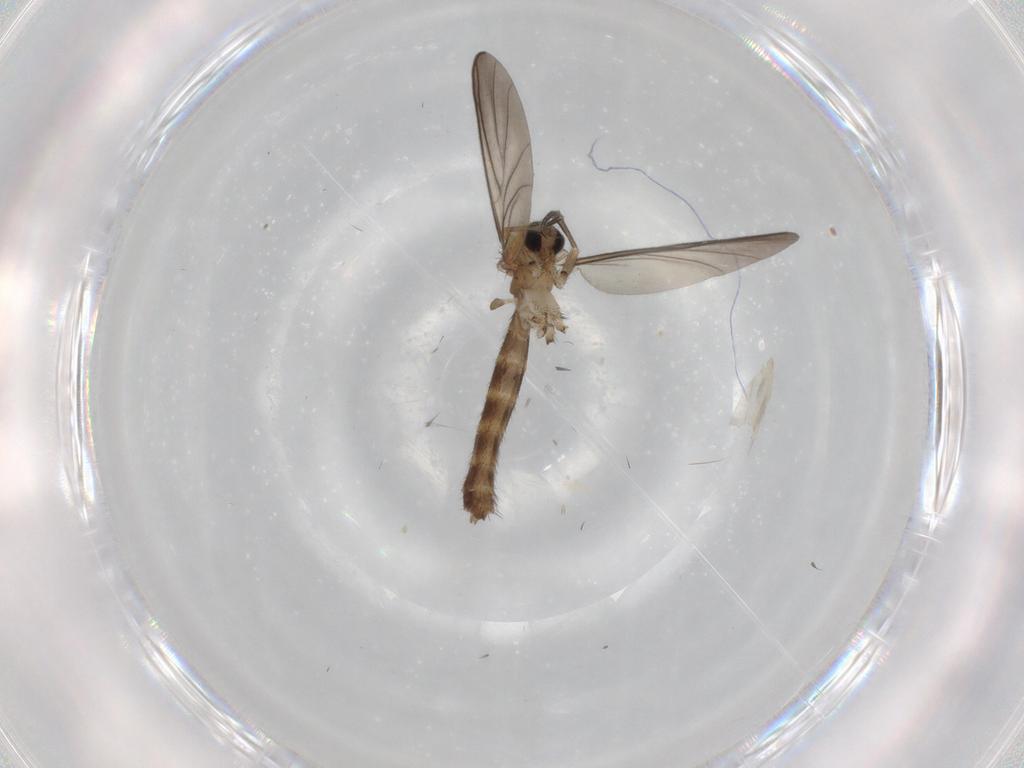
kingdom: Animalia
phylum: Arthropoda
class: Insecta
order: Diptera
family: Keroplatidae
